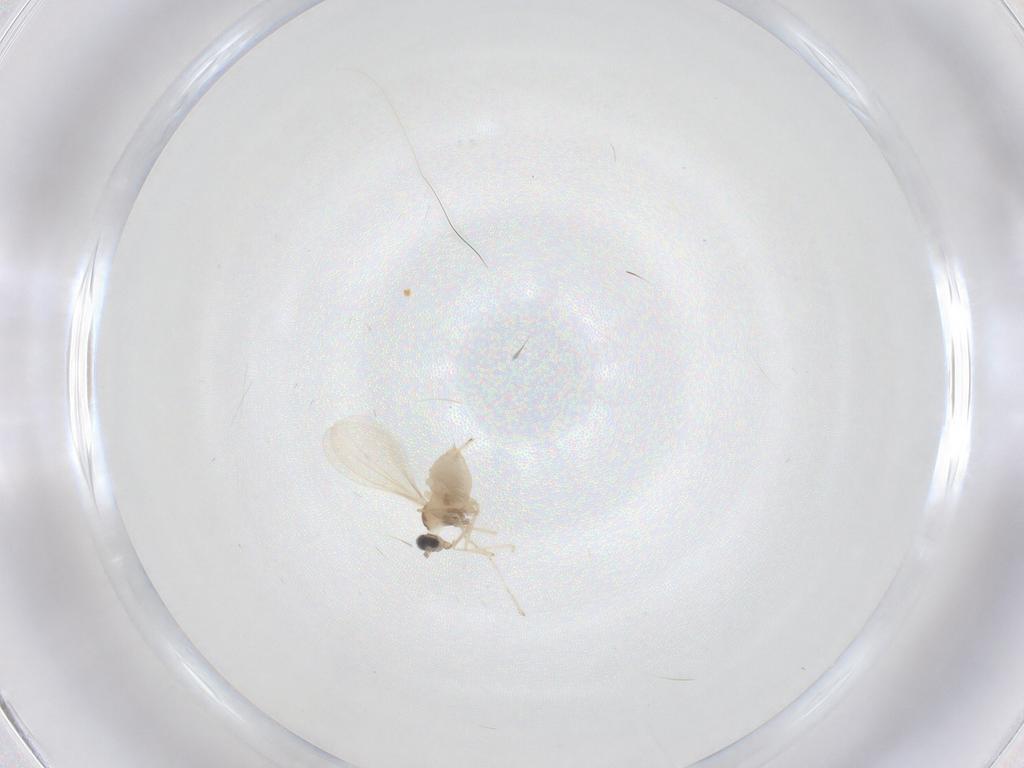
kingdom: Animalia
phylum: Arthropoda
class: Insecta
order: Diptera
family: Cecidomyiidae
